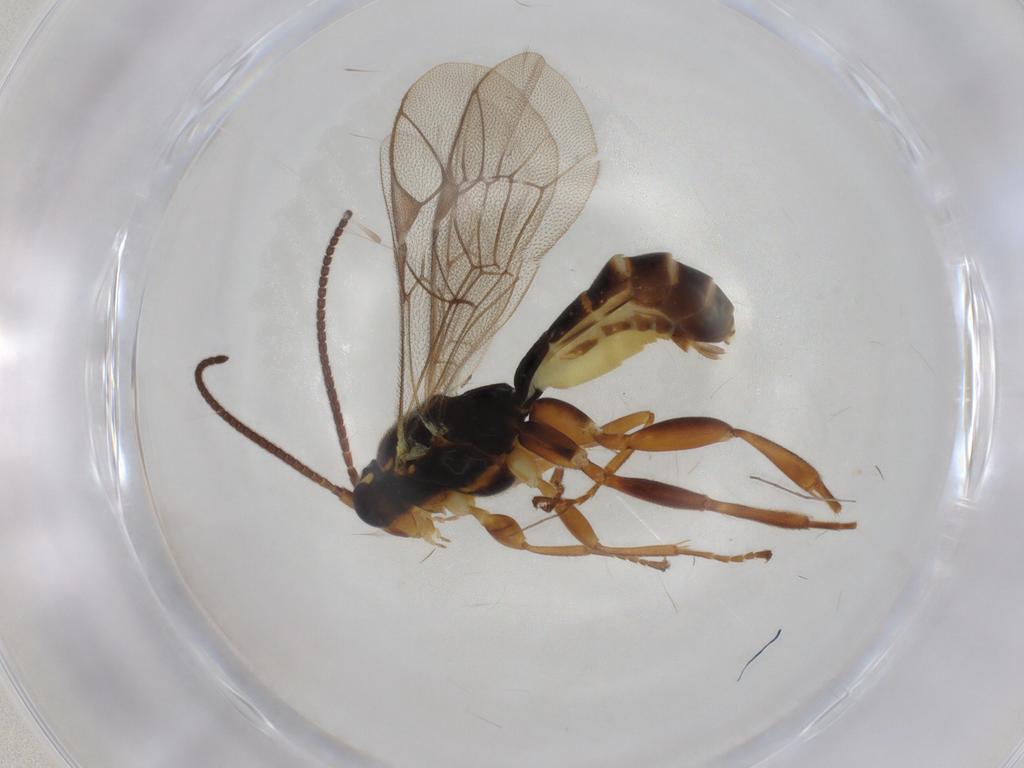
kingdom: Animalia
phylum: Arthropoda
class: Insecta
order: Hymenoptera
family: Ichneumonidae
